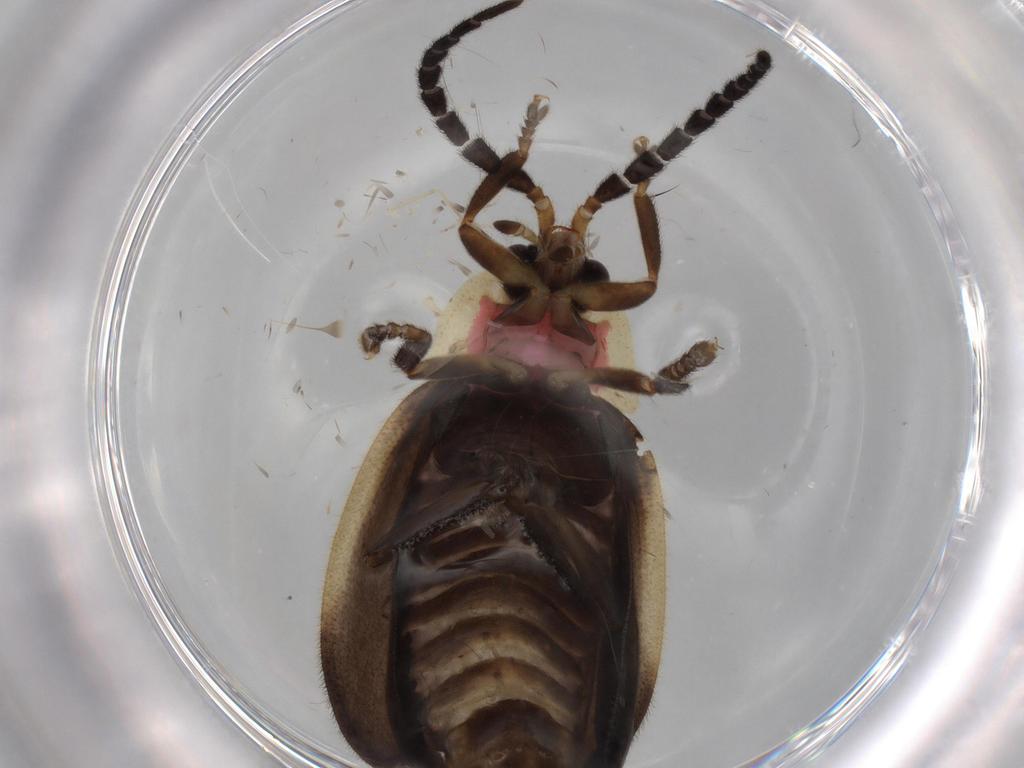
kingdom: Animalia
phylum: Arthropoda
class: Insecta
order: Coleoptera
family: Lampyridae
